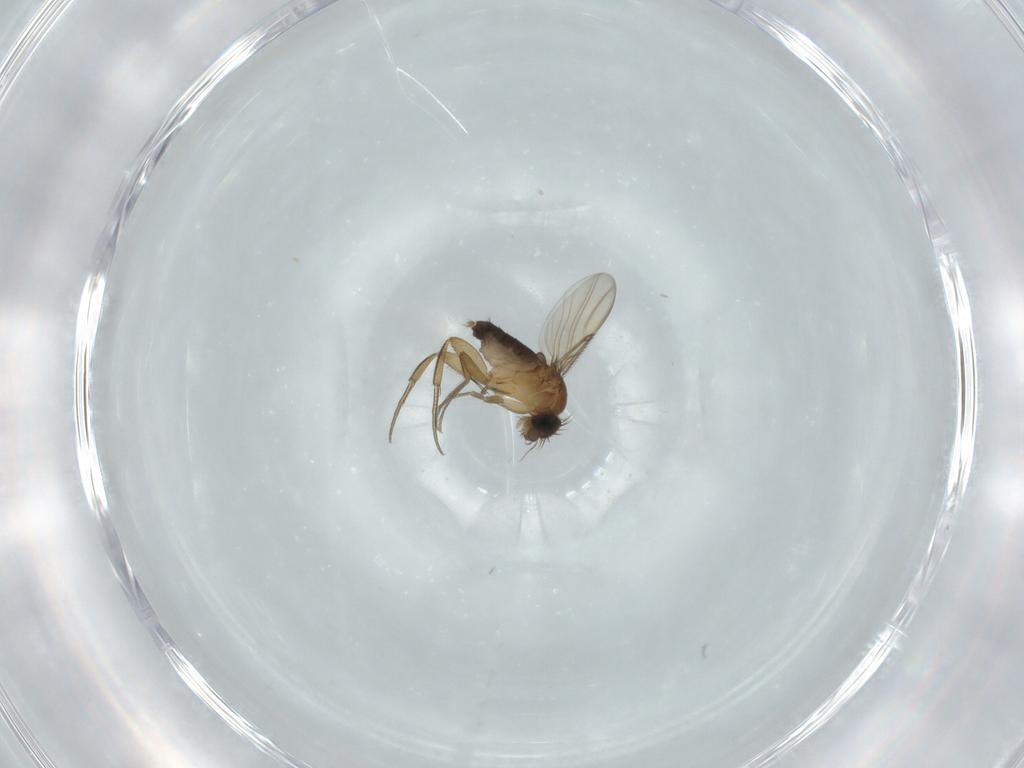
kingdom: Animalia
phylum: Arthropoda
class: Insecta
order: Diptera
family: Phoridae
